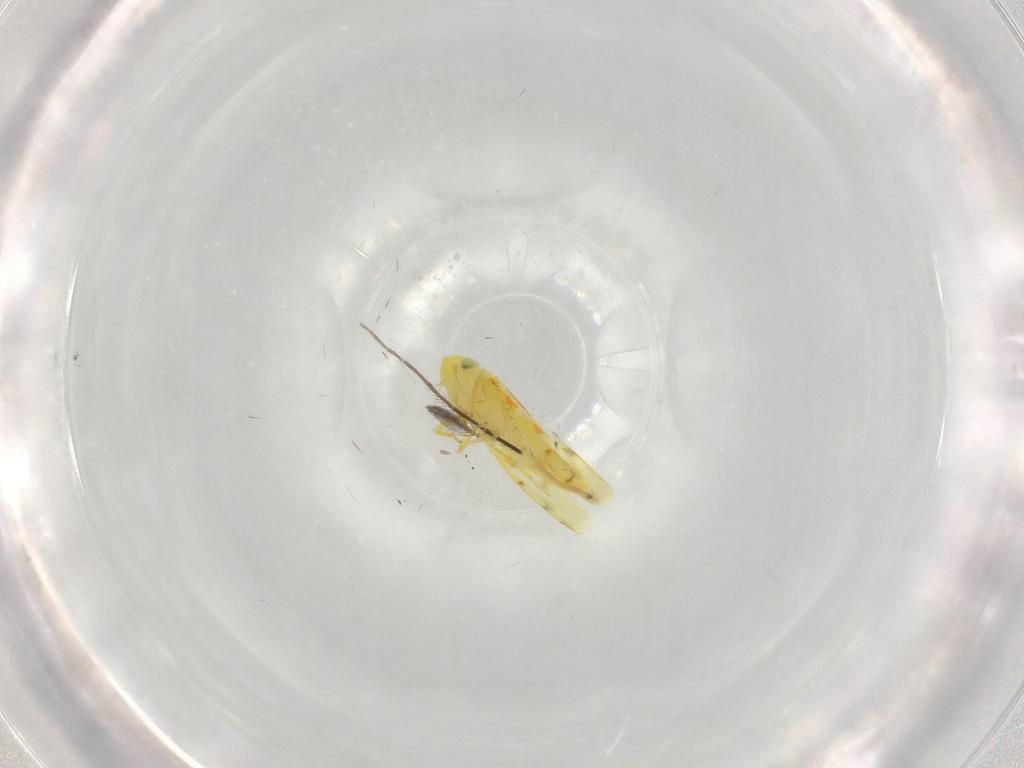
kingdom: Animalia
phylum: Arthropoda
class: Insecta
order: Hemiptera
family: Cicadellidae
